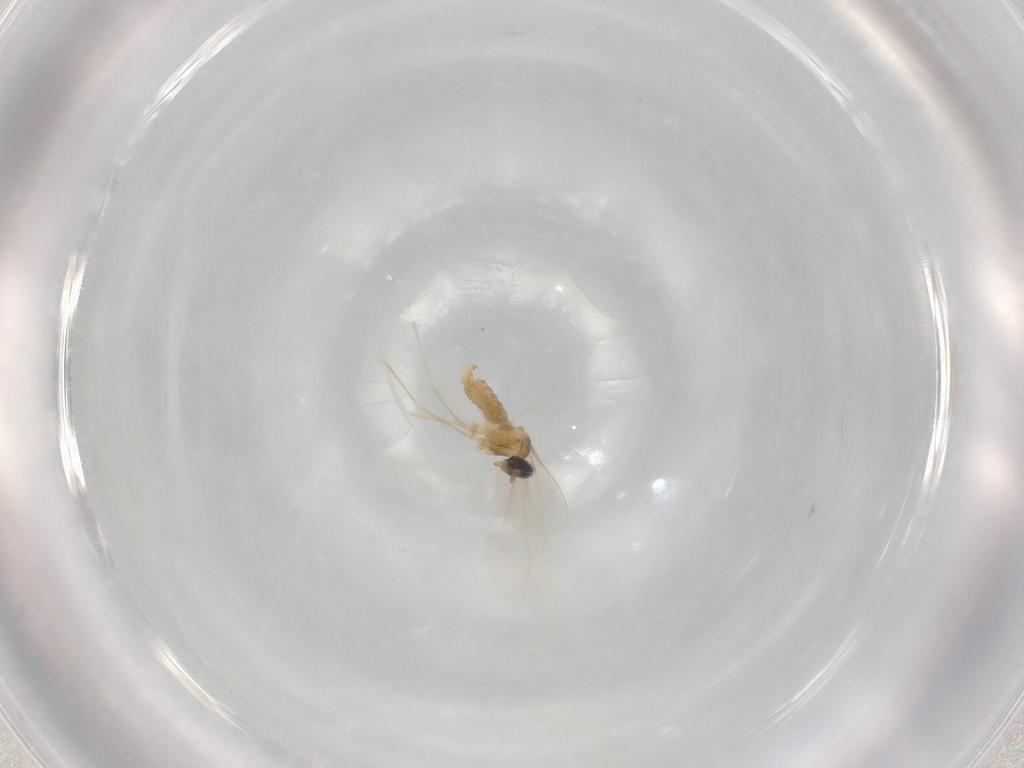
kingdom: Animalia
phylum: Arthropoda
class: Insecta
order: Diptera
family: Cecidomyiidae
